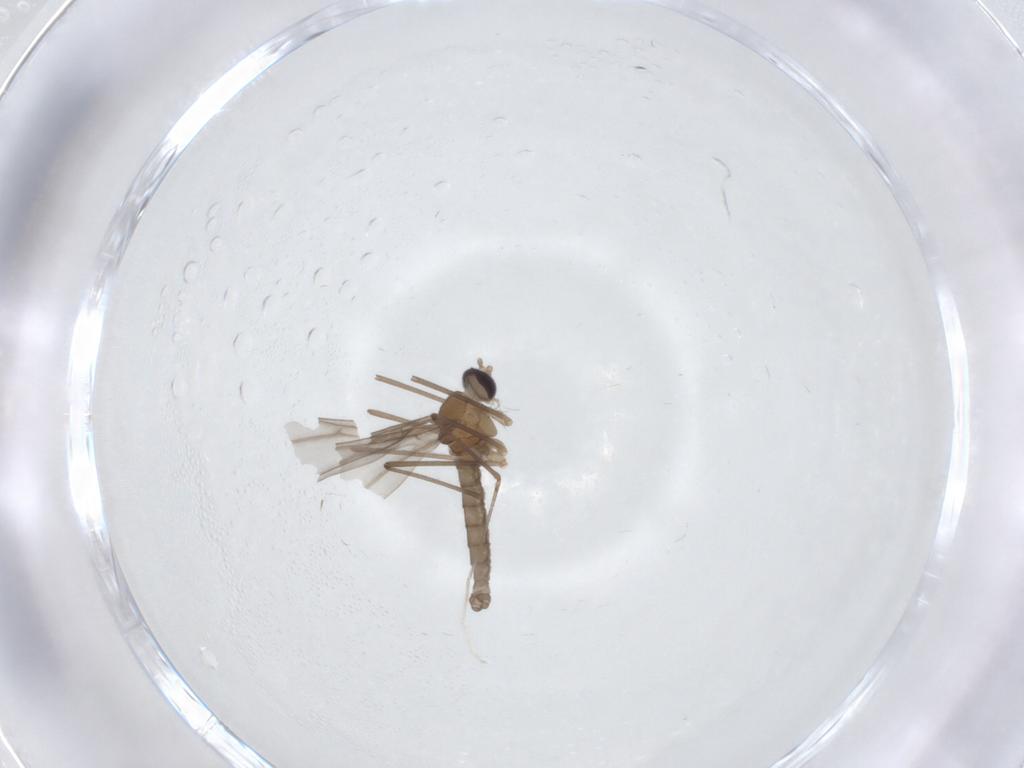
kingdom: Animalia
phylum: Arthropoda
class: Insecta
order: Diptera
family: Cecidomyiidae
